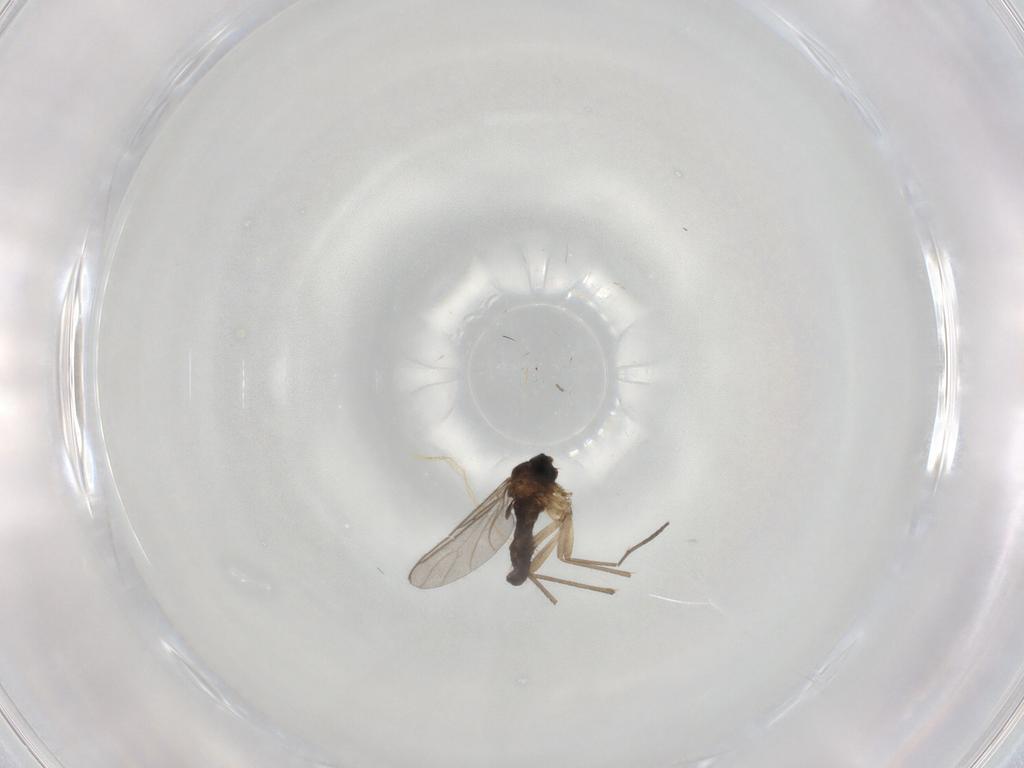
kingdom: Animalia
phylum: Arthropoda
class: Insecta
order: Diptera
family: Sciaridae
